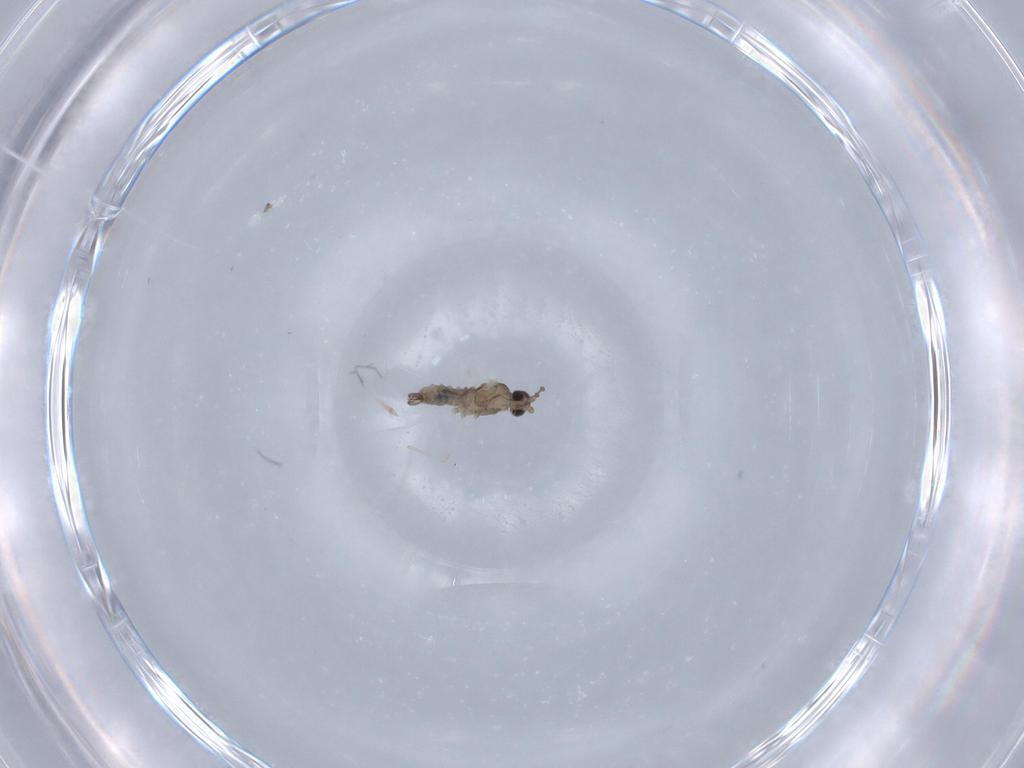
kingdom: Animalia
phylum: Arthropoda
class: Insecta
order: Diptera
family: Cecidomyiidae
